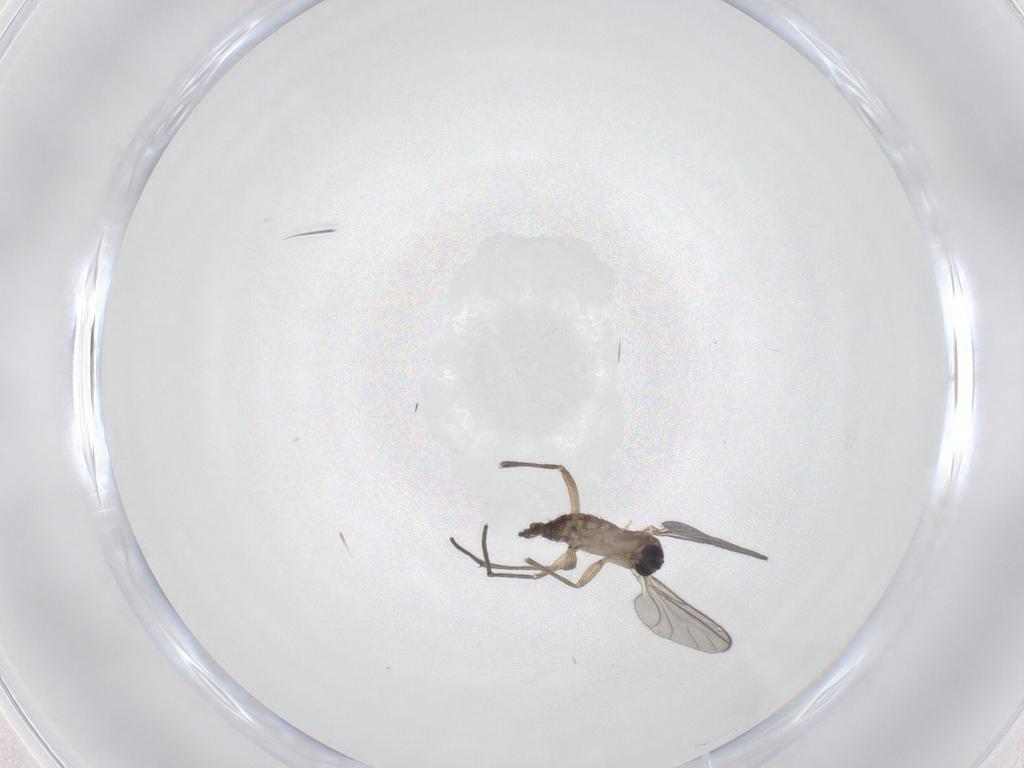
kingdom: Animalia
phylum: Arthropoda
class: Insecta
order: Diptera
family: Sciaridae
